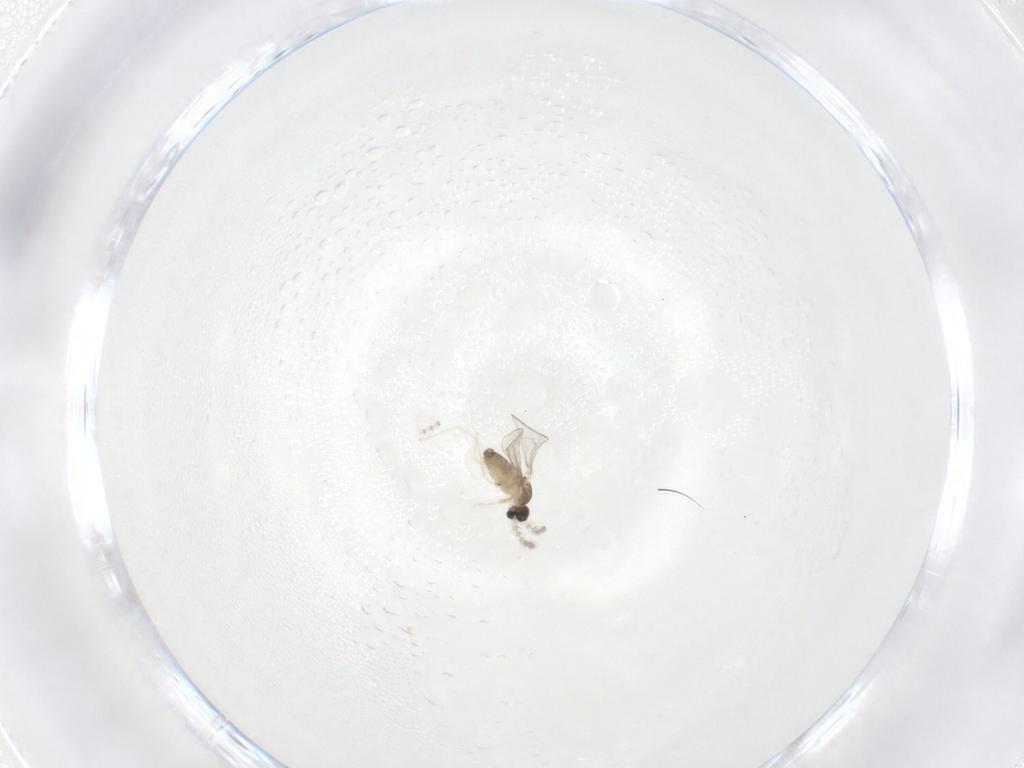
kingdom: Animalia
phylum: Arthropoda
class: Insecta
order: Diptera
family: Cecidomyiidae
